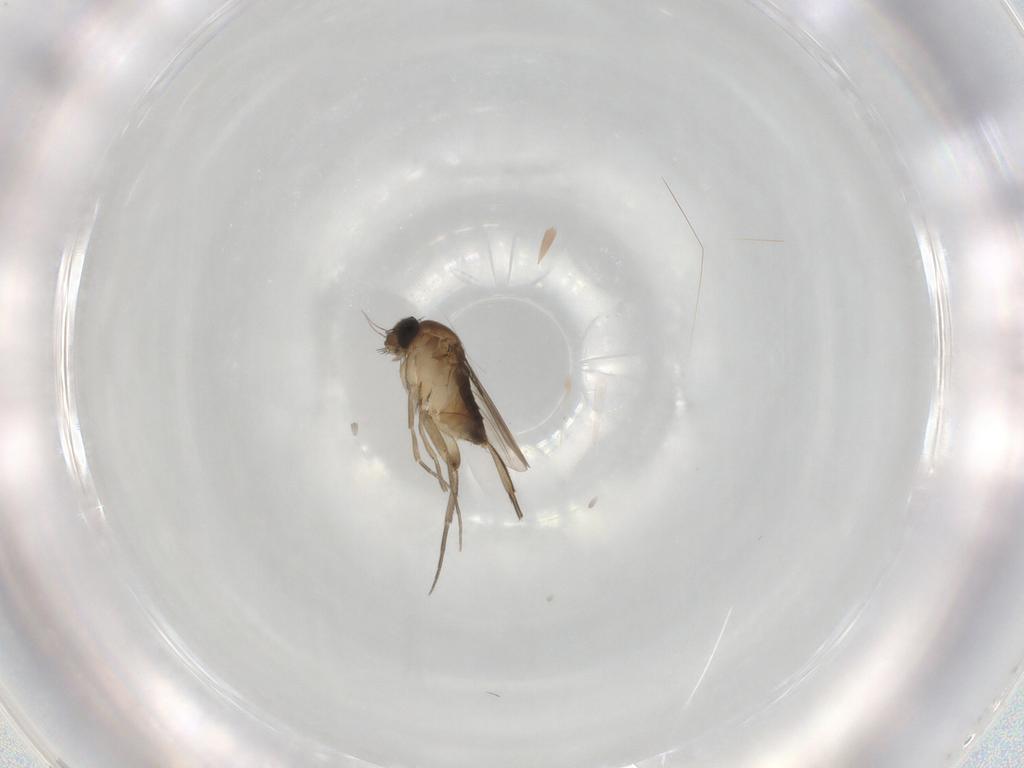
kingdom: Animalia
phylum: Arthropoda
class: Insecta
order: Diptera
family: Phoridae
